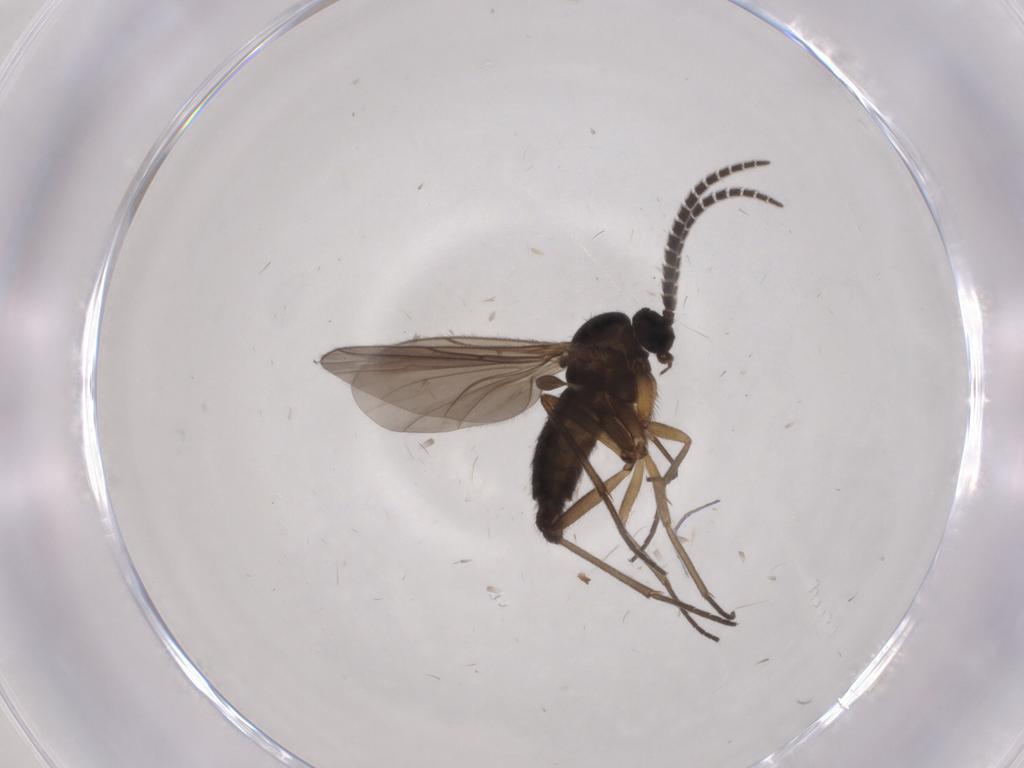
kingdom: Animalia
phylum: Arthropoda
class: Insecta
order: Diptera
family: Sciaridae
